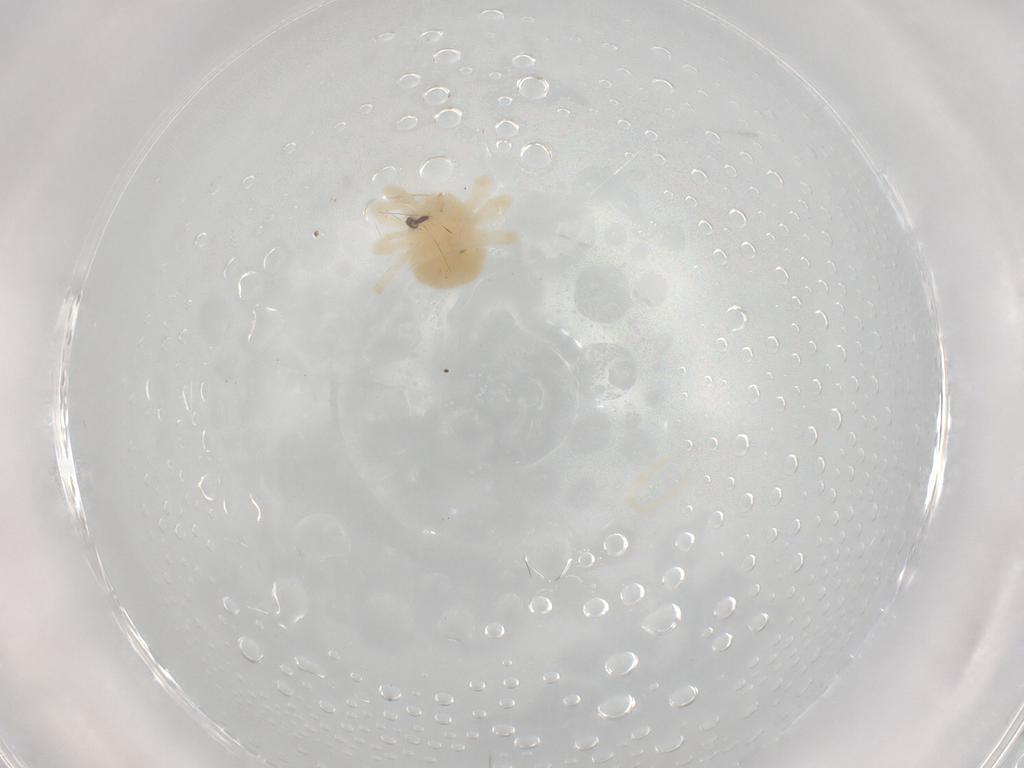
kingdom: Animalia
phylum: Arthropoda
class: Arachnida
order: Trombidiformes
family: Anystidae
